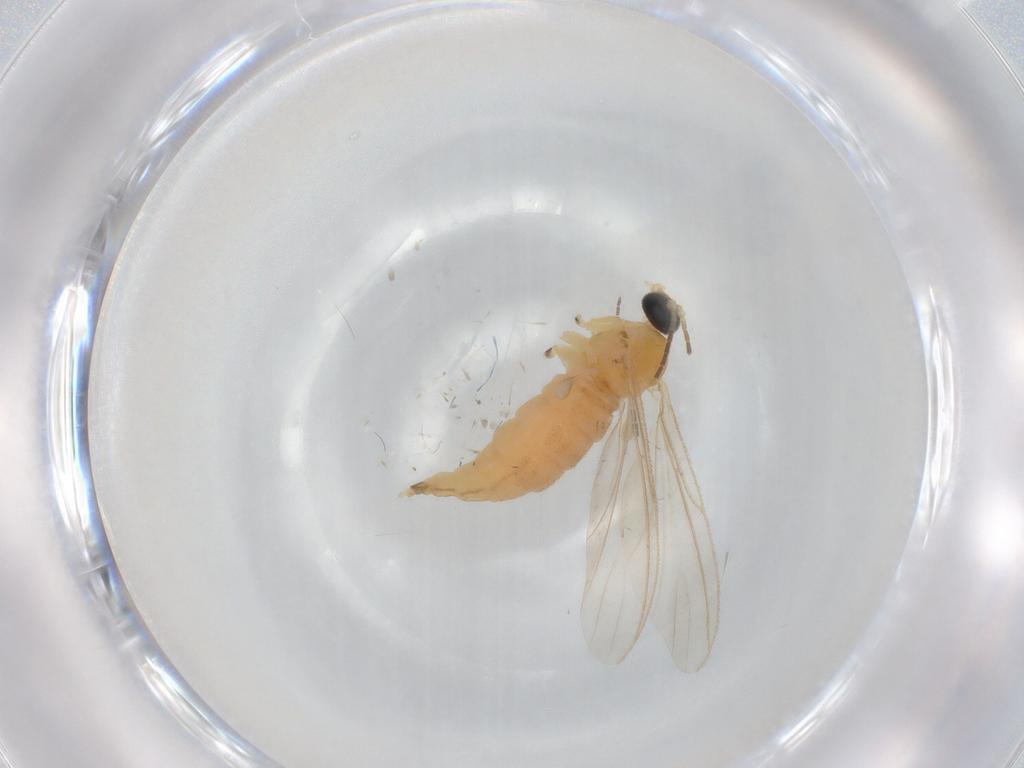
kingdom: Animalia
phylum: Arthropoda
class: Insecta
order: Diptera
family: Sciaridae
